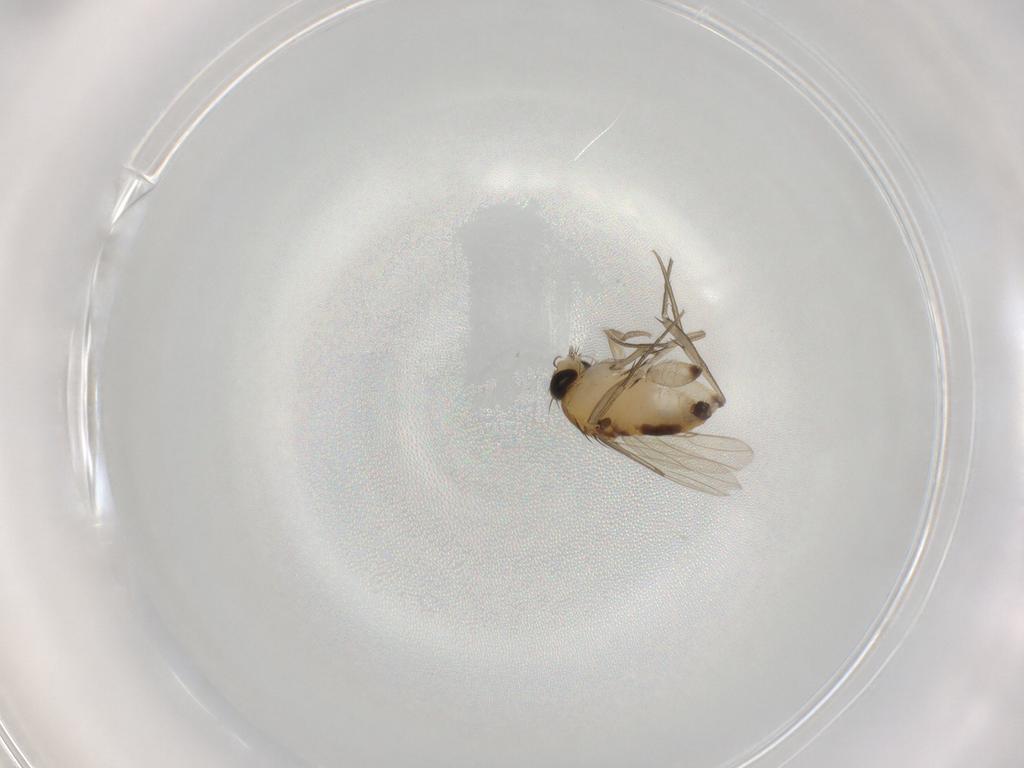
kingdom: Animalia
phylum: Arthropoda
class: Insecta
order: Diptera
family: Phoridae
